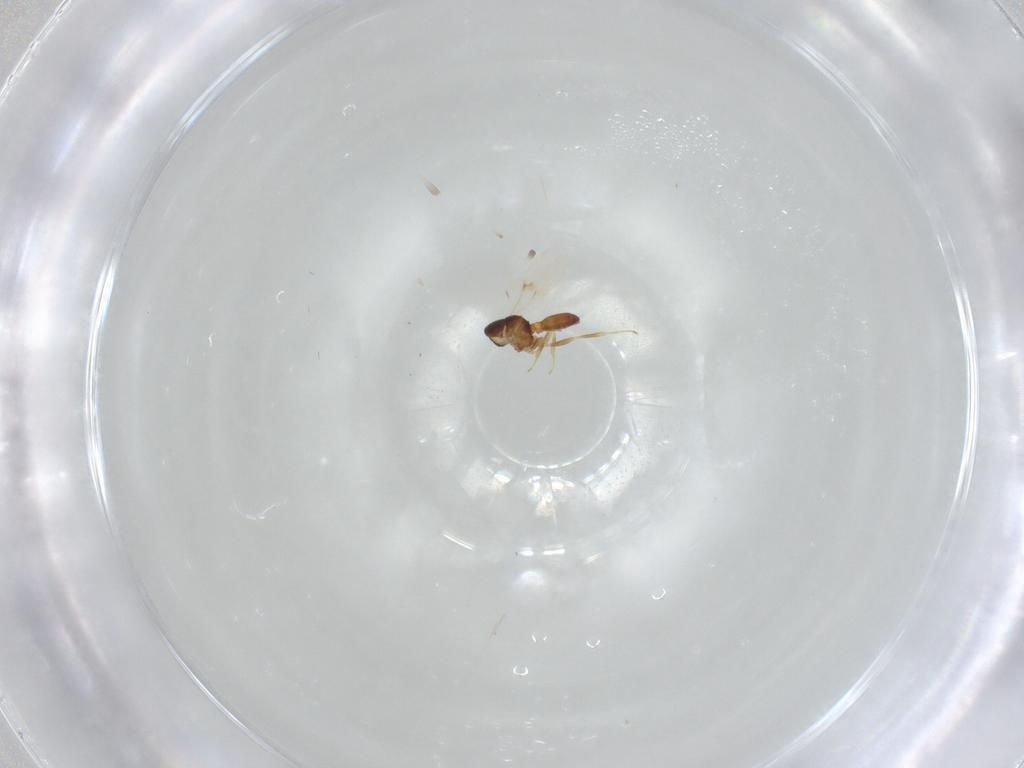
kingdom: Animalia
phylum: Arthropoda
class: Insecta
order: Hymenoptera
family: Scelionidae
